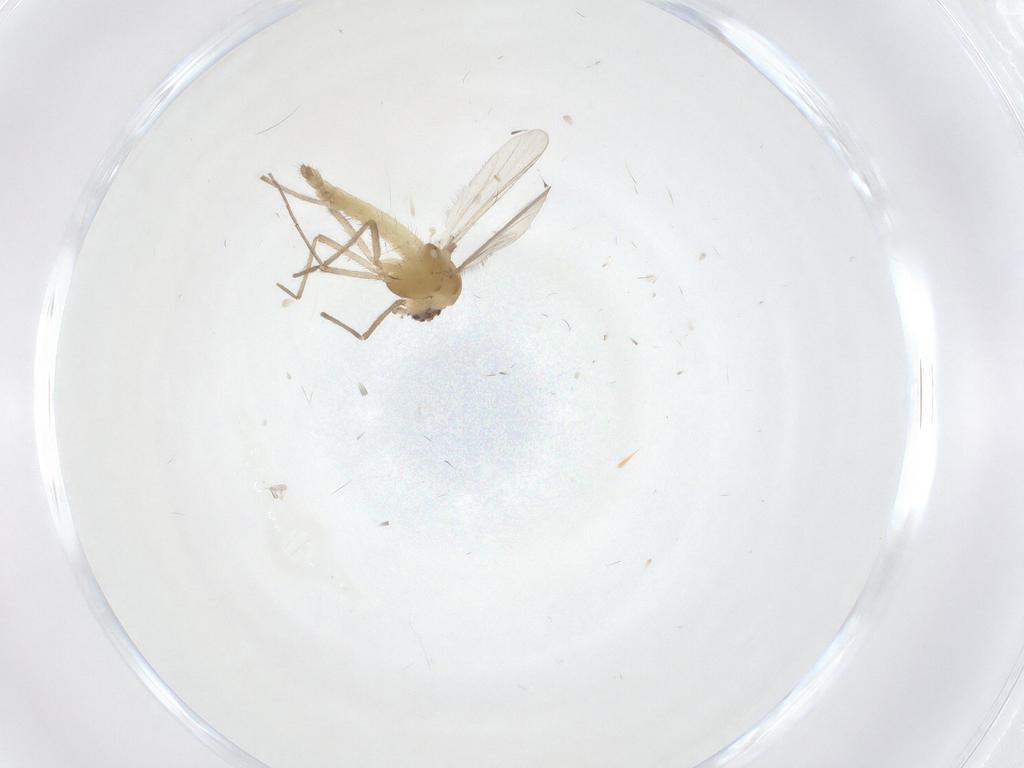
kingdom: Animalia
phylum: Arthropoda
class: Insecta
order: Diptera
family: Chironomidae
